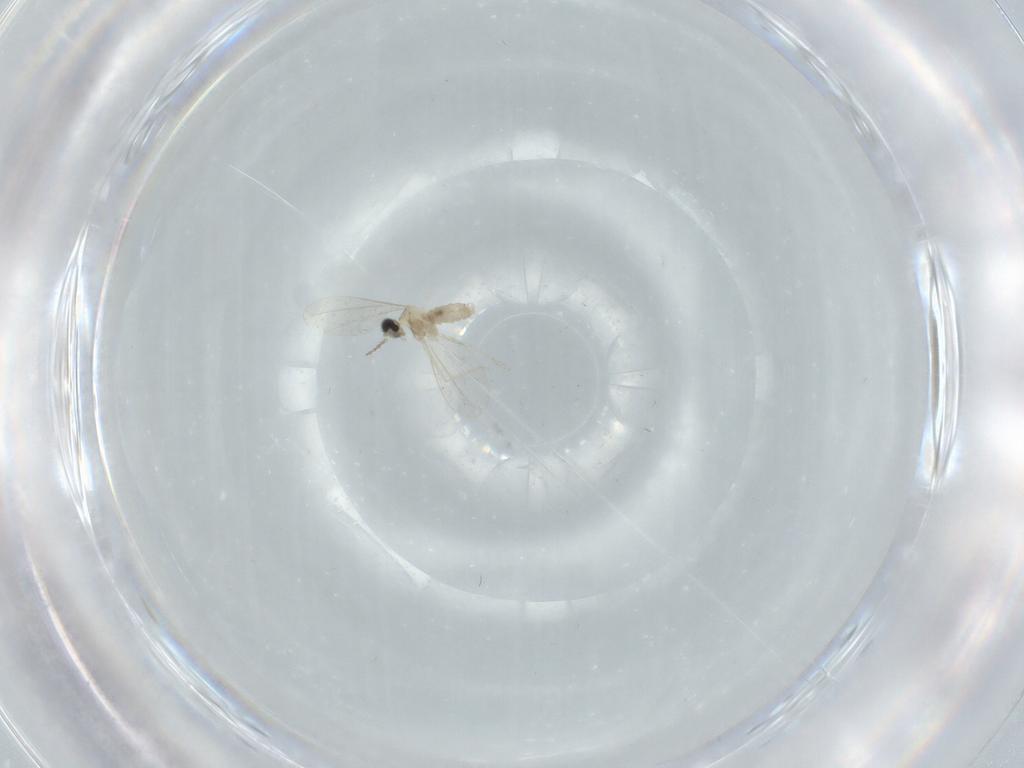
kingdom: Animalia
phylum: Arthropoda
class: Insecta
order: Diptera
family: Cecidomyiidae
